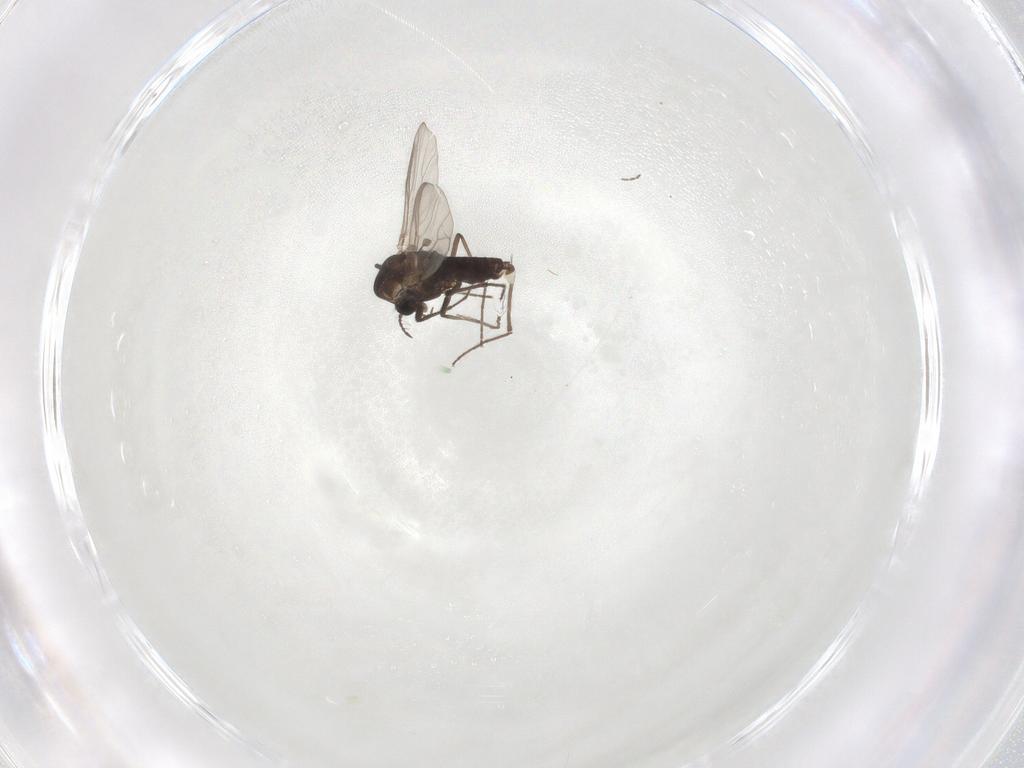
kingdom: Animalia
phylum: Arthropoda
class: Insecta
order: Diptera
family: Chironomidae
